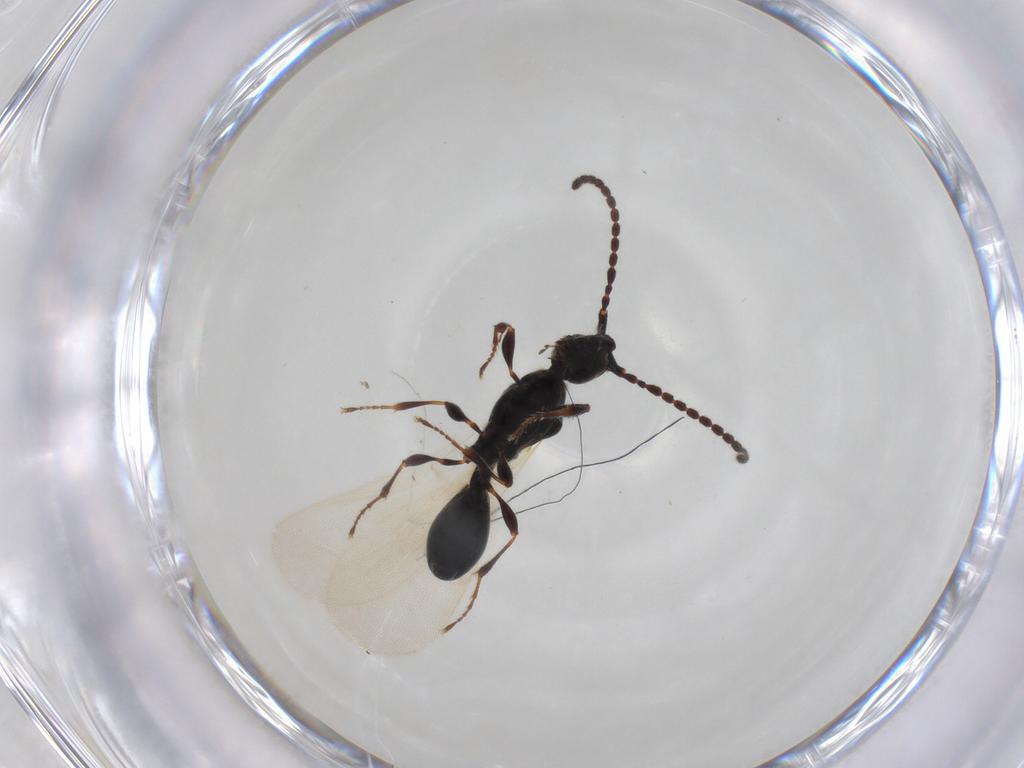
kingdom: Animalia
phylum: Arthropoda
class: Insecta
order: Hymenoptera
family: Diapriidae
